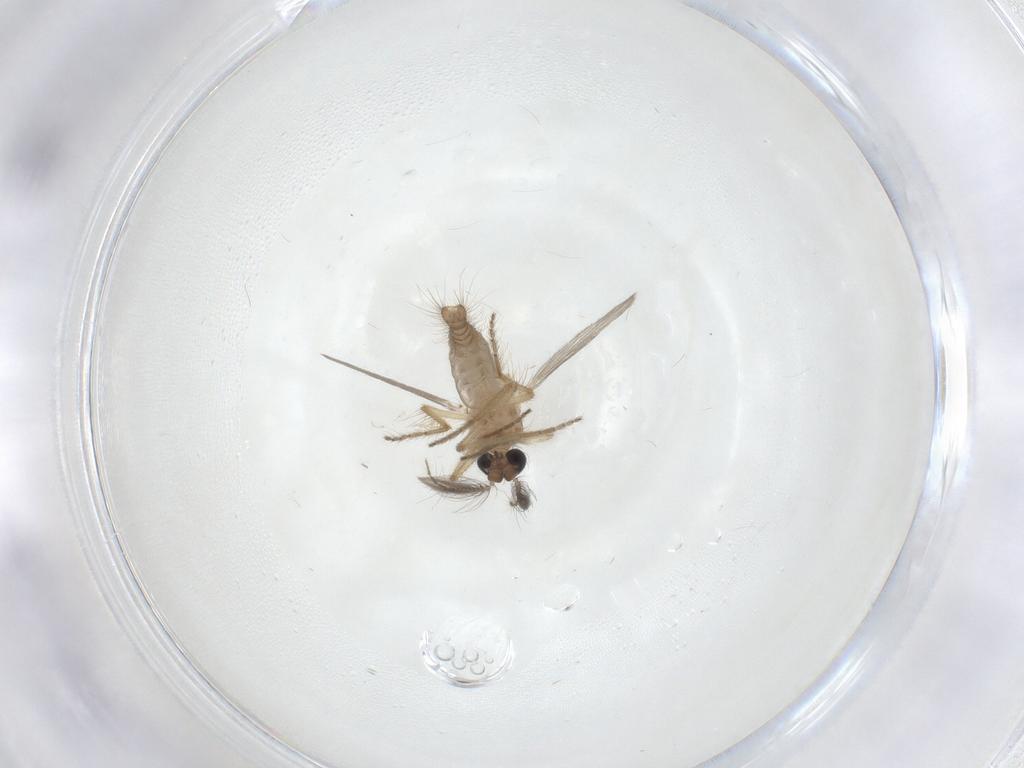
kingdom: Animalia
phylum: Arthropoda
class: Insecta
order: Diptera
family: Ceratopogonidae
